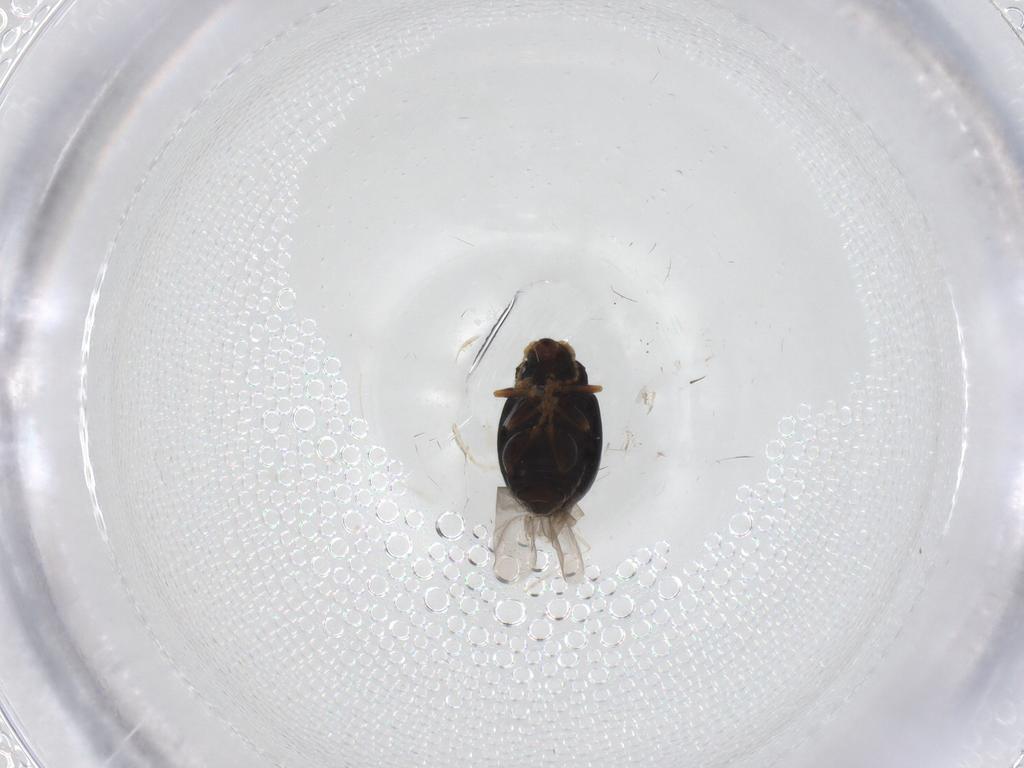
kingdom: Animalia
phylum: Arthropoda
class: Insecta
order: Coleoptera
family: Chrysomelidae
